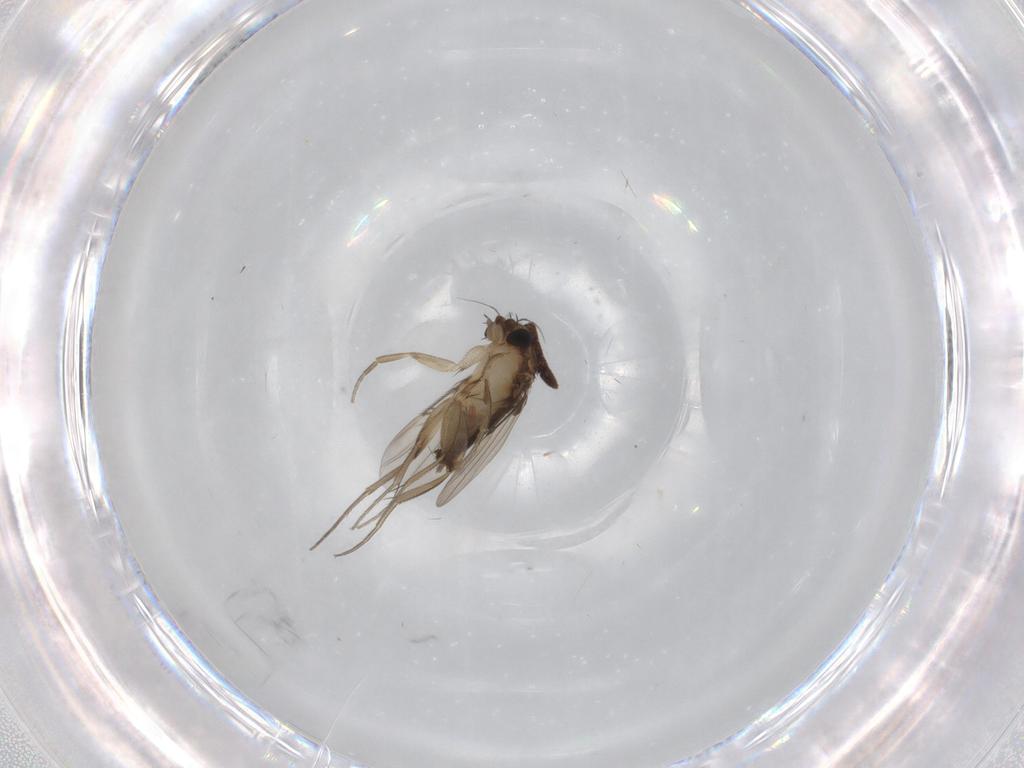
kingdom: Animalia
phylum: Arthropoda
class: Insecta
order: Diptera
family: Phoridae
